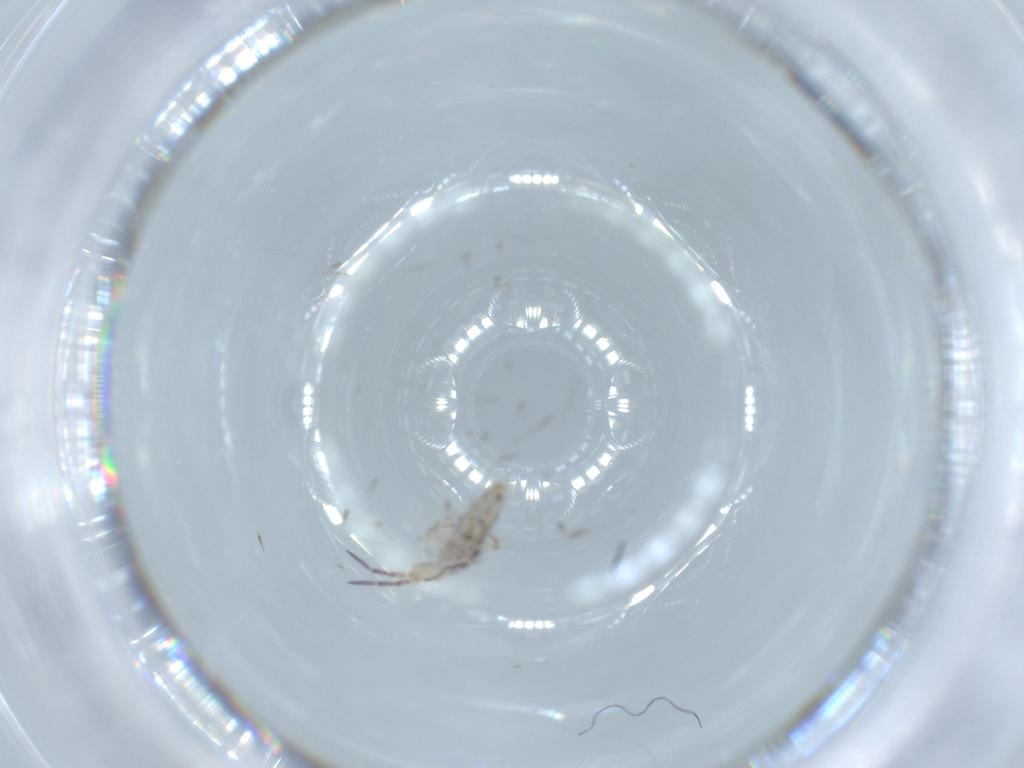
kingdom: Animalia
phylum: Arthropoda
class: Collembola
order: Entomobryomorpha
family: Entomobryidae
